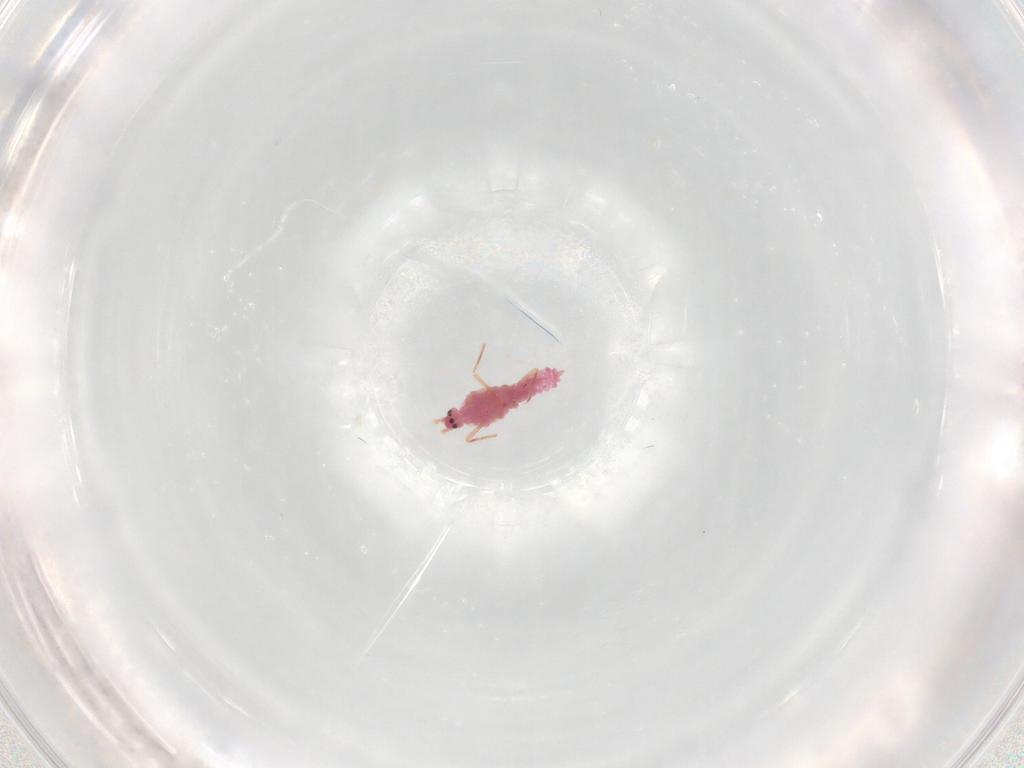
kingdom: Animalia
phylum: Arthropoda
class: Insecta
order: Hemiptera
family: Pseudococcidae
